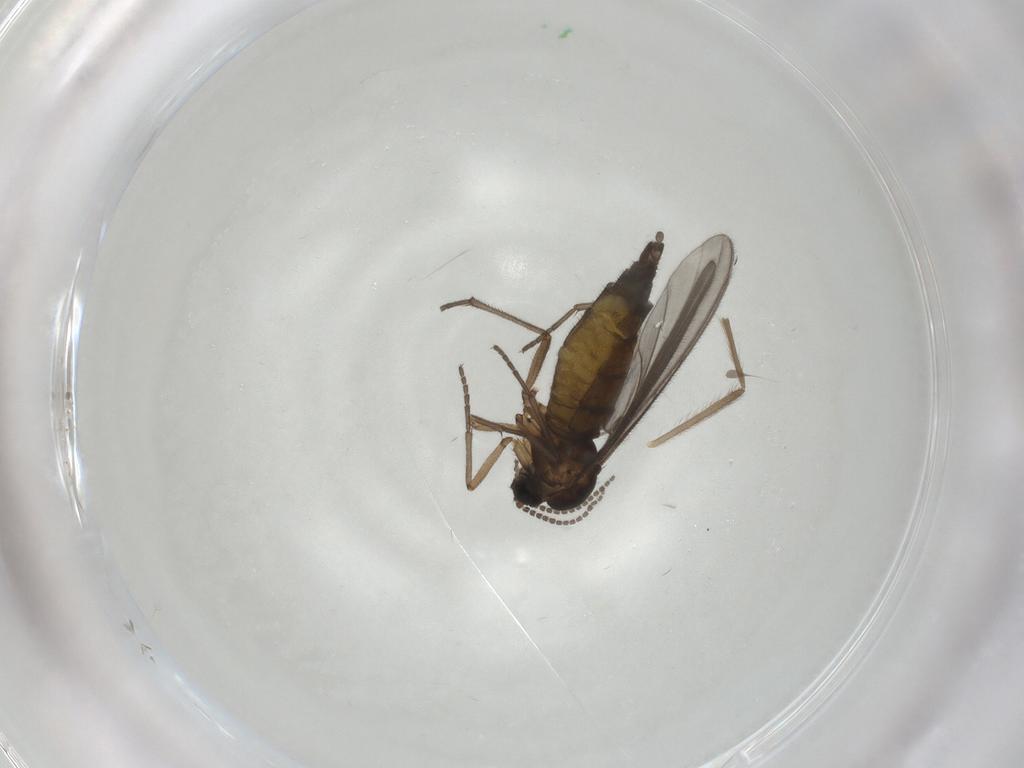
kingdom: Animalia
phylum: Arthropoda
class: Insecta
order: Diptera
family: Sciaridae
